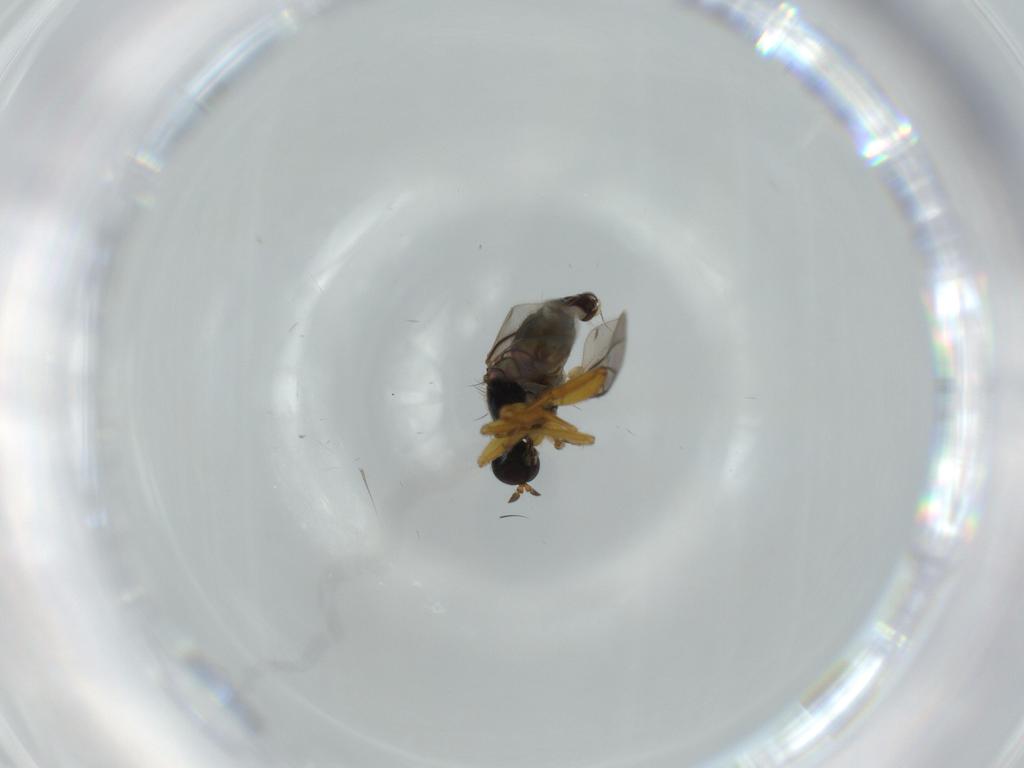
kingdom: Animalia
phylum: Arthropoda
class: Insecta
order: Diptera
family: Hybotidae
